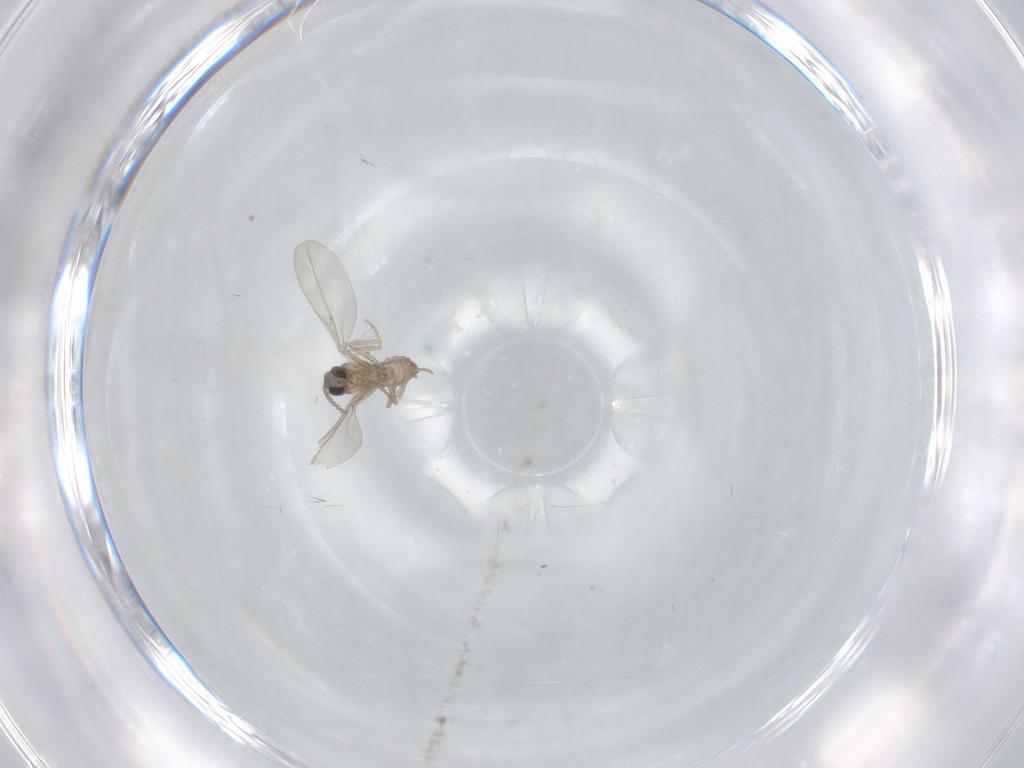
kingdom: Animalia
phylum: Arthropoda
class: Insecta
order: Diptera
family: Cecidomyiidae
